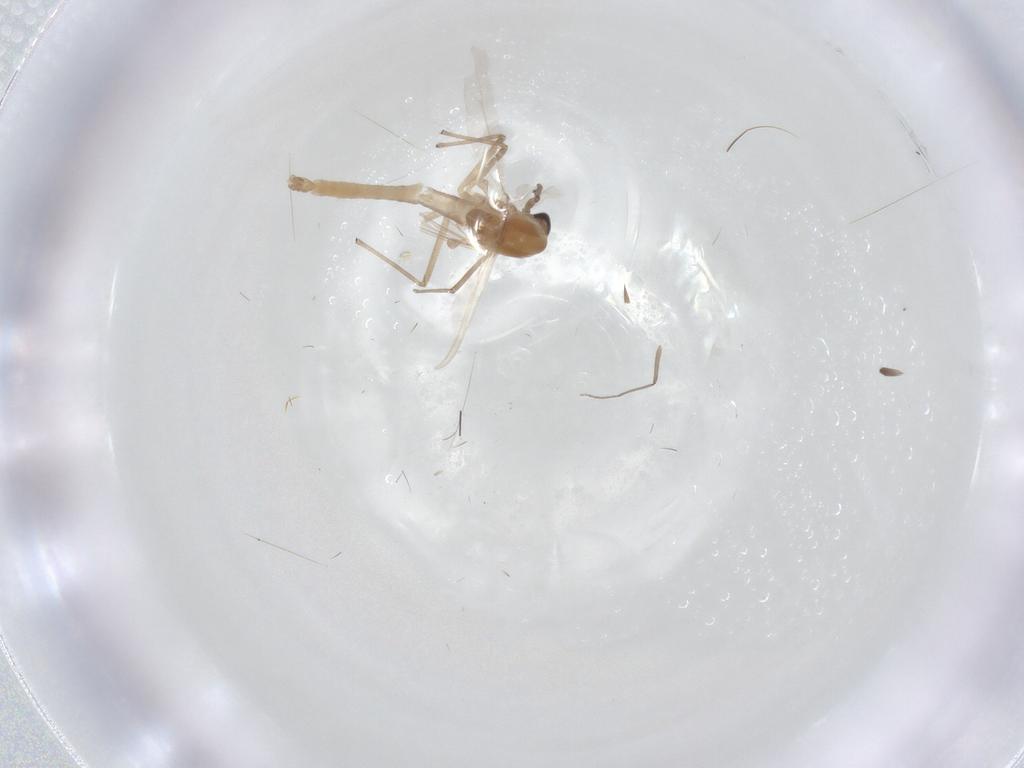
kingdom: Animalia
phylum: Arthropoda
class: Insecta
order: Diptera
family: Chironomidae
